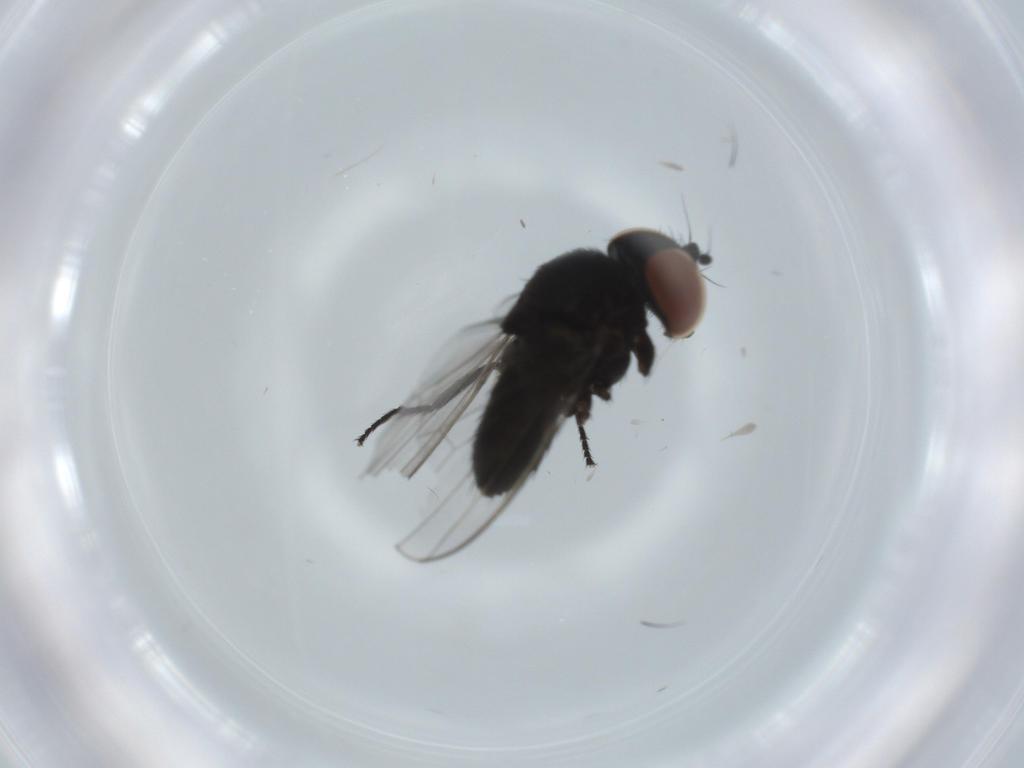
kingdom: Animalia
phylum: Arthropoda
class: Insecta
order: Diptera
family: Milichiidae
